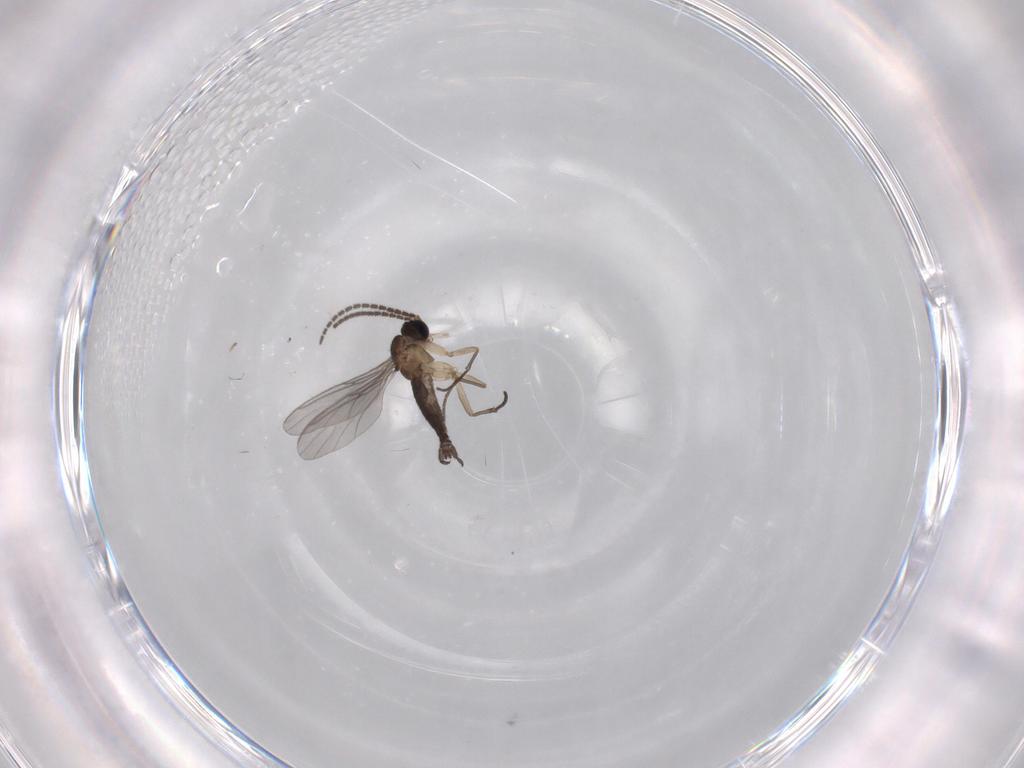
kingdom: Animalia
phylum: Arthropoda
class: Insecta
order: Diptera
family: Sciaridae
